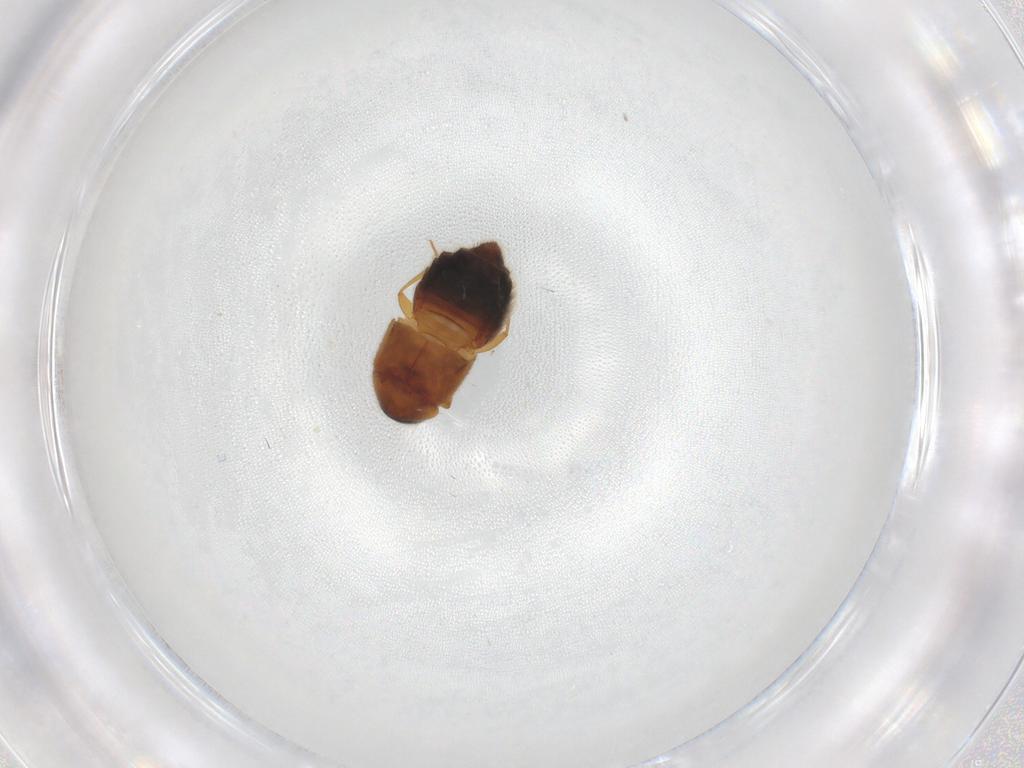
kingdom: Animalia
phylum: Arthropoda
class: Insecta
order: Coleoptera
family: Staphylinidae
